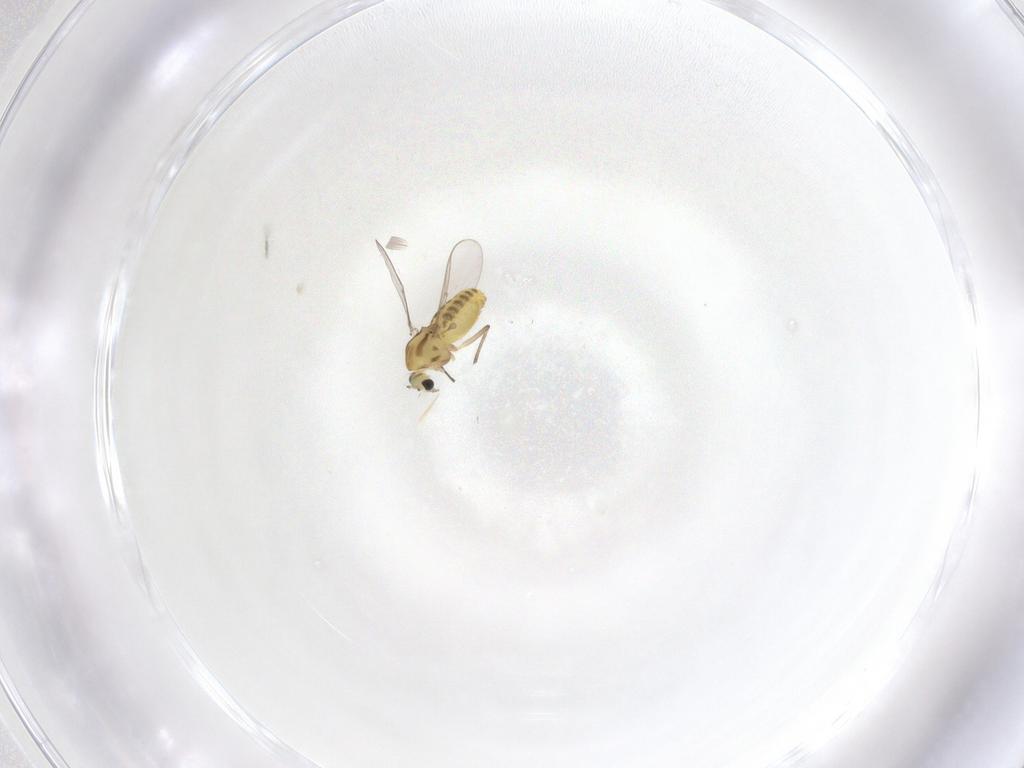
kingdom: Animalia
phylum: Arthropoda
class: Insecta
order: Diptera
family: Chironomidae
